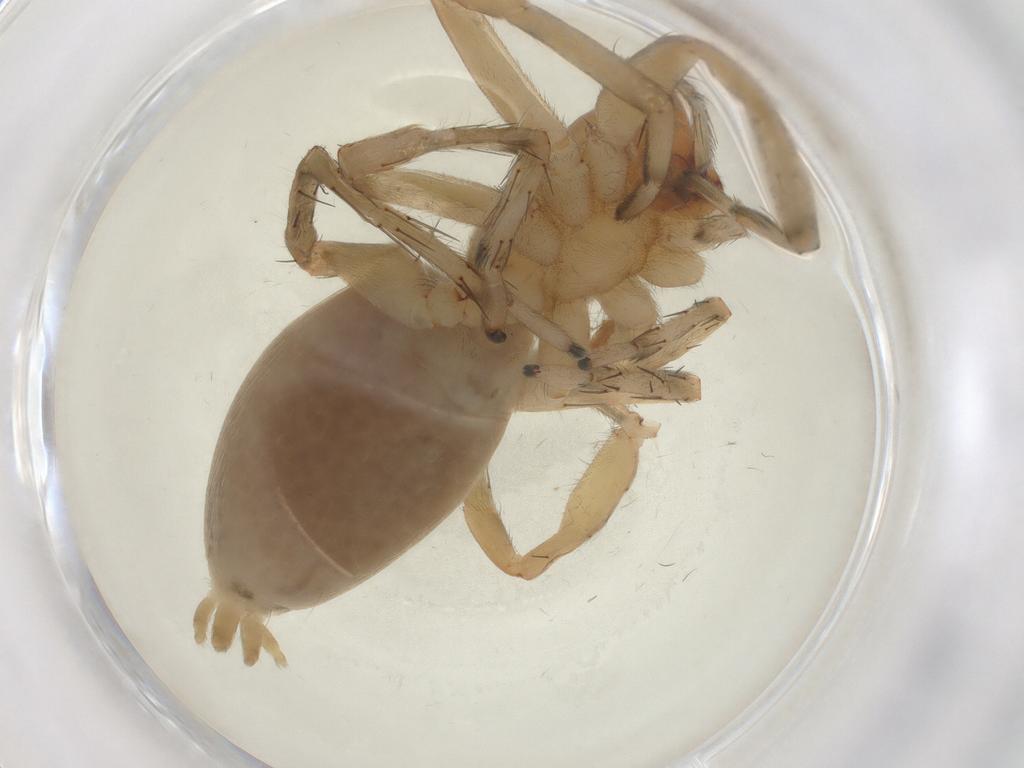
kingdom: Animalia
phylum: Arthropoda
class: Arachnida
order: Araneae
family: Anyphaenidae
